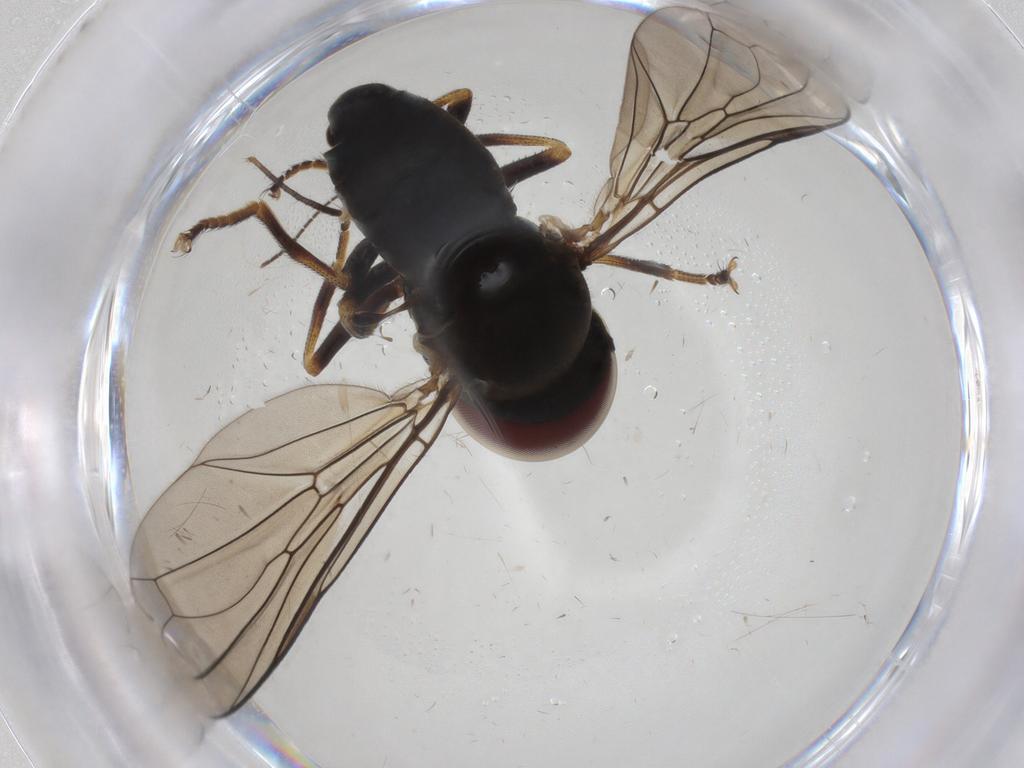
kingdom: Animalia
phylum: Arthropoda
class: Insecta
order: Diptera
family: Pipunculidae
